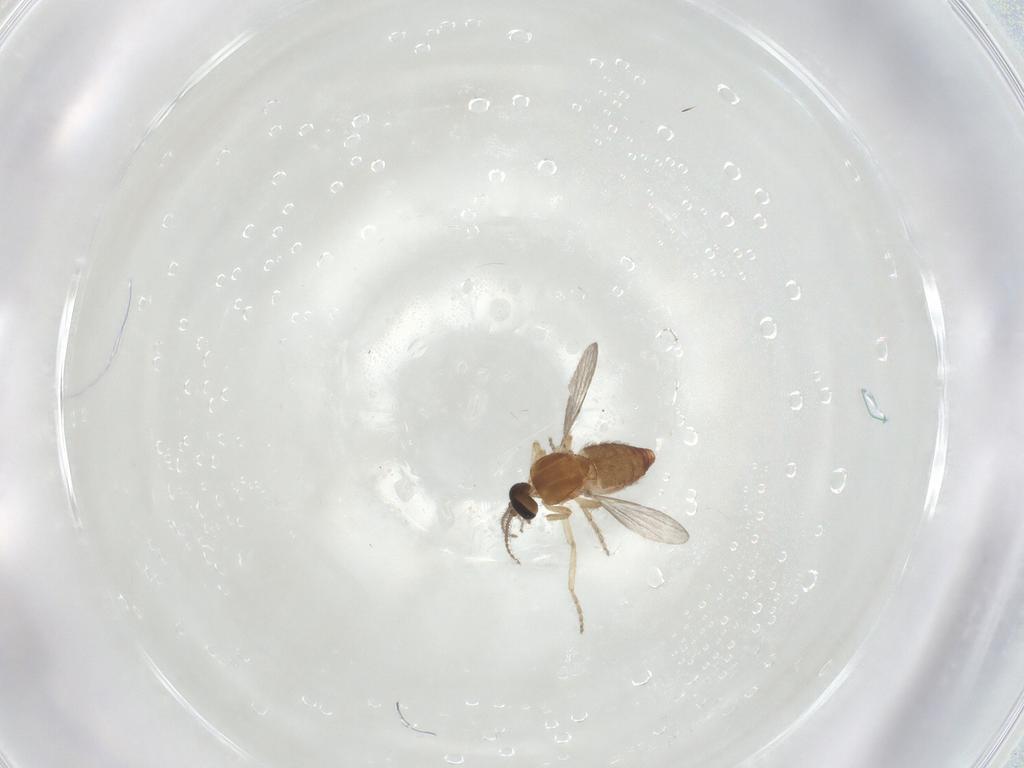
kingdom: Animalia
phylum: Arthropoda
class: Insecta
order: Diptera
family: Ceratopogonidae
